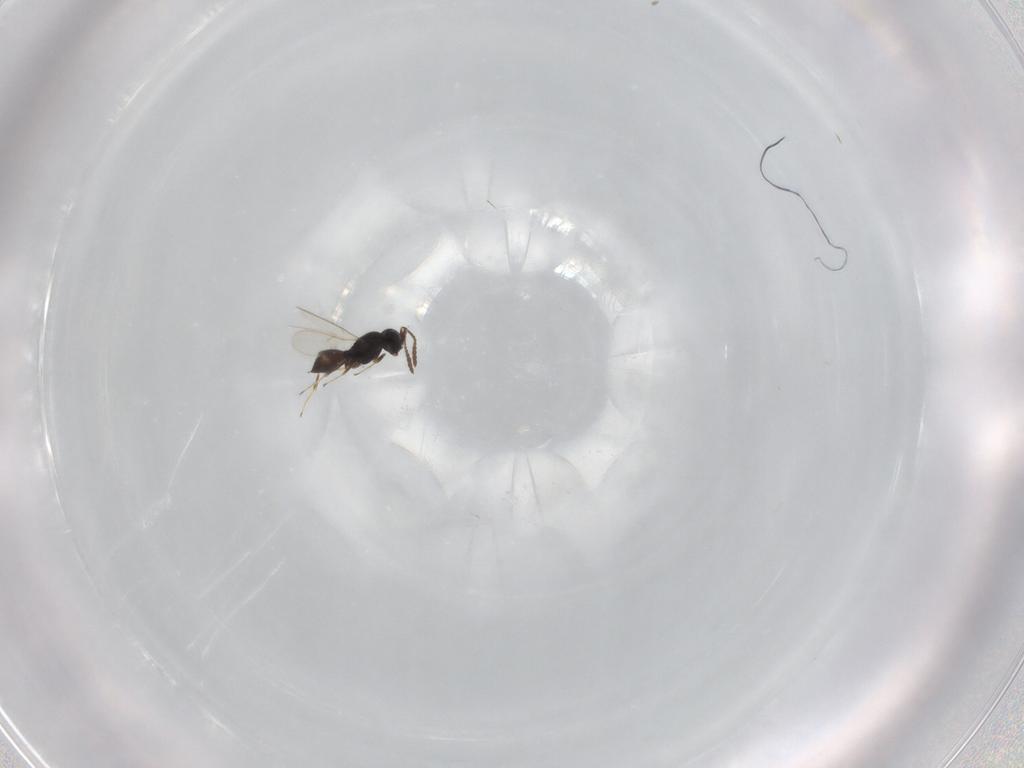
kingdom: Animalia
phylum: Arthropoda
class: Insecta
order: Hymenoptera
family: Scelionidae
